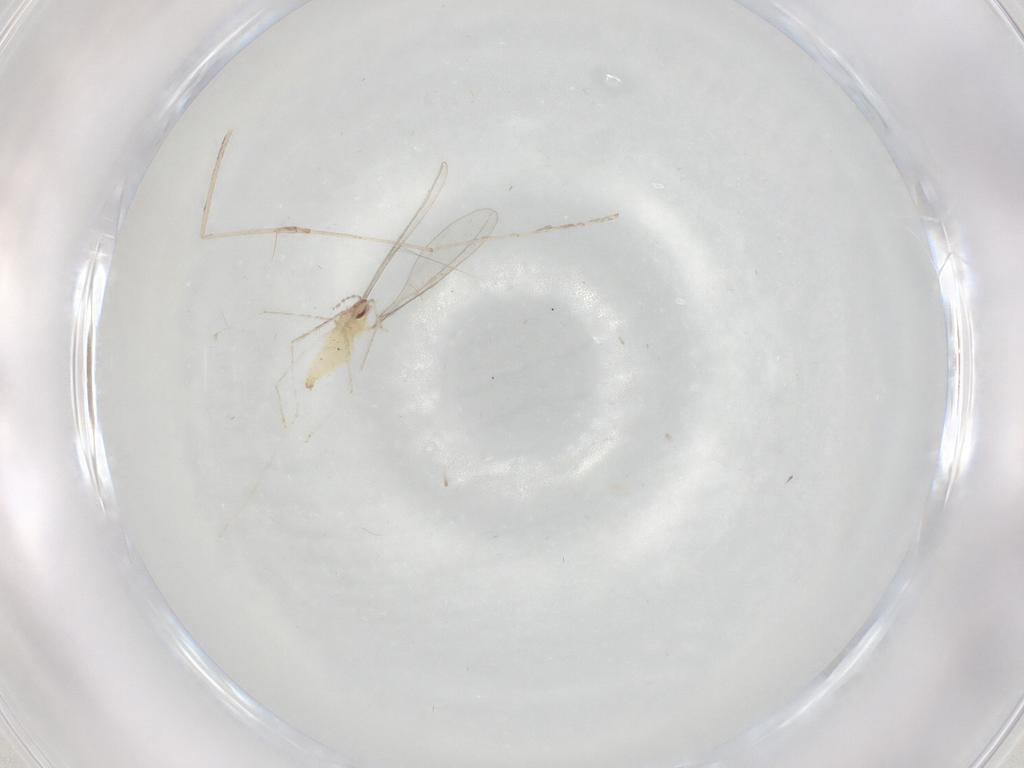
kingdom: Animalia
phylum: Arthropoda
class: Insecta
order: Diptera
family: Cecidomyiidae
